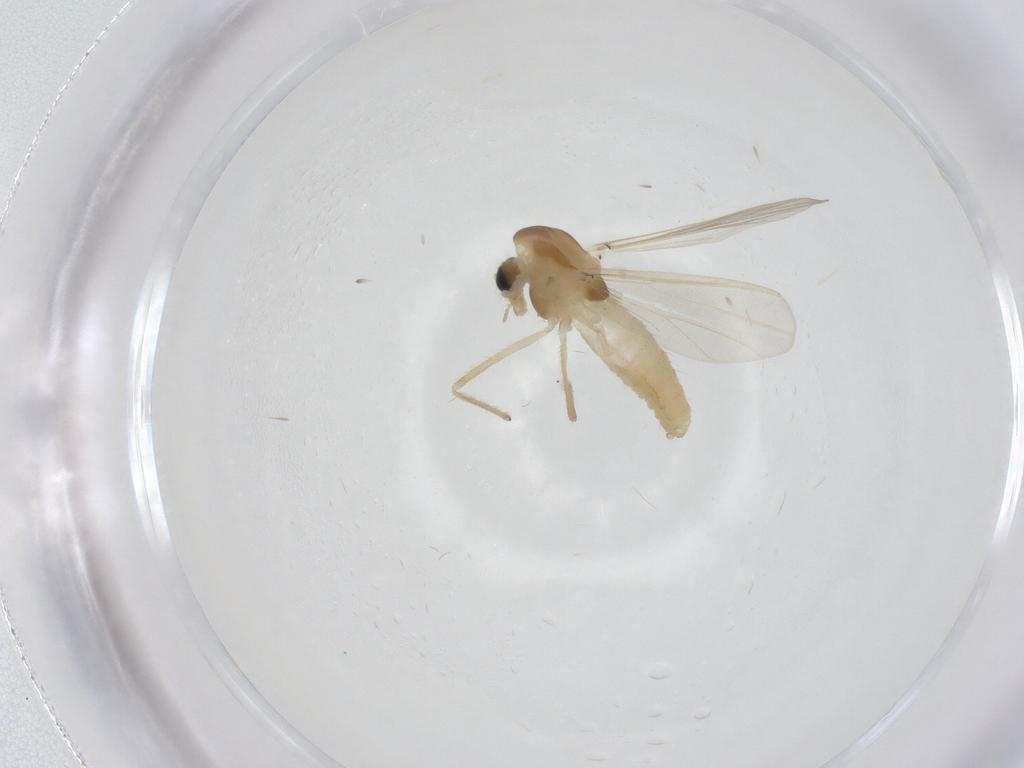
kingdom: Animalia
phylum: Arthropoda
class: Insecta
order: Diptera
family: Chironomidae
